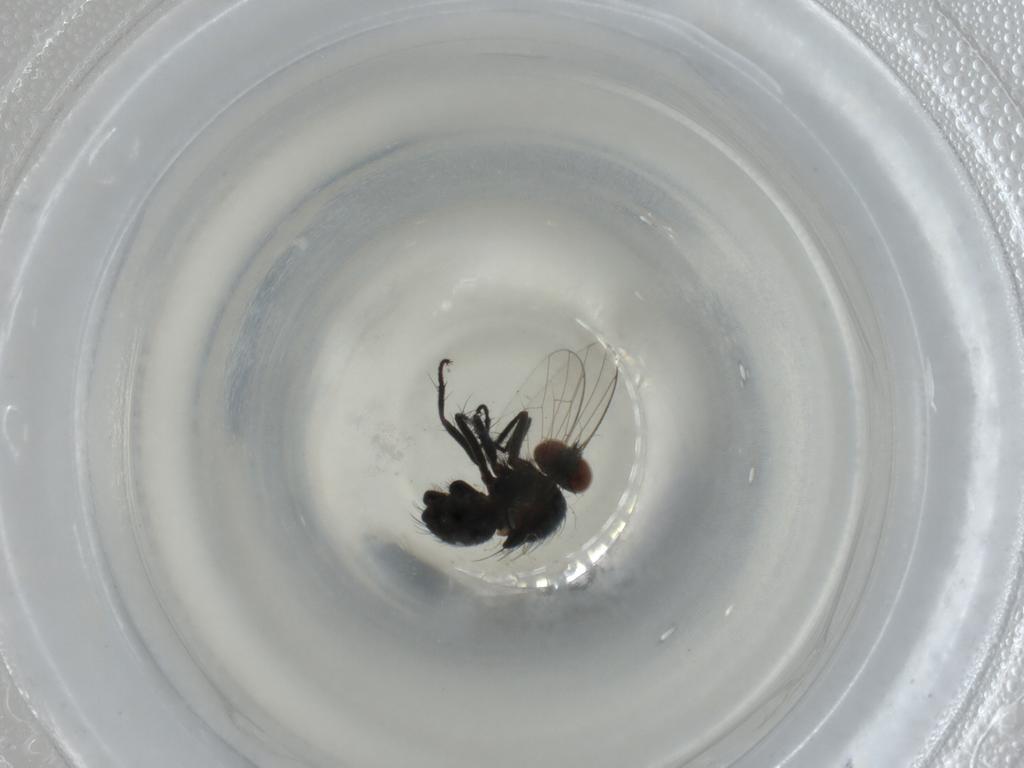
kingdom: Animalia
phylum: Arthropoda
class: Insecta
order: Diptera
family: Muscidae
